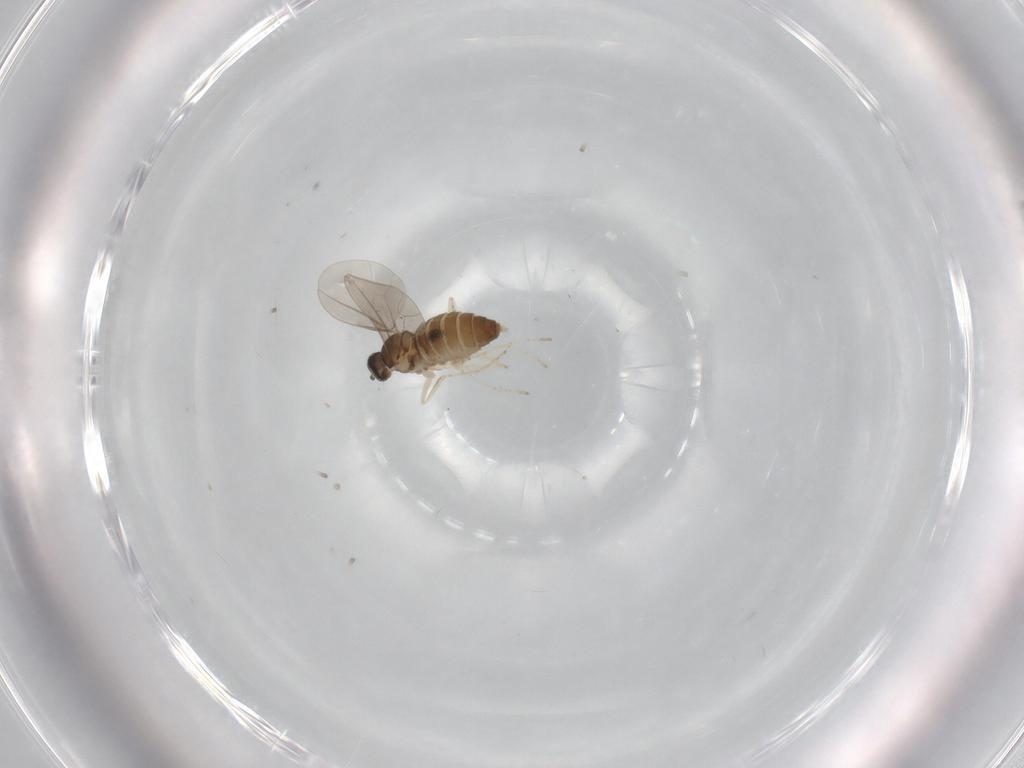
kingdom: Animalia
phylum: Arthropoda
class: Insecta
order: Diptera
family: Cecidomyiidae
